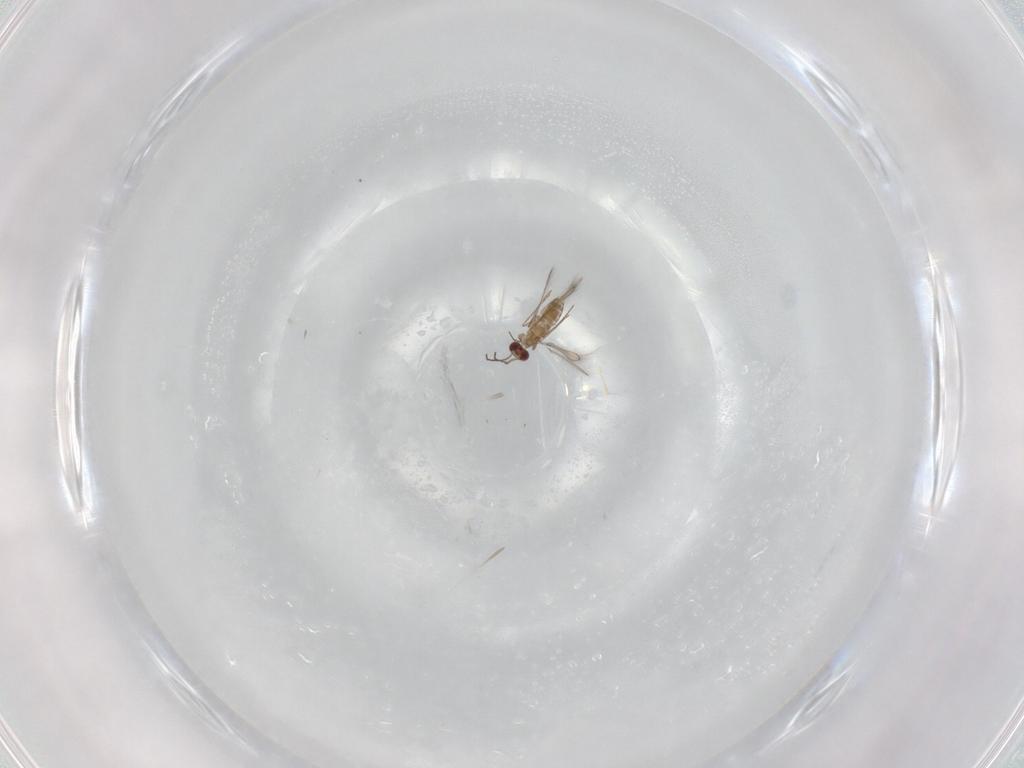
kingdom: Animalia
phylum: Arthropoda
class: Insecta
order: Hymenoptera
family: Mymaridae
